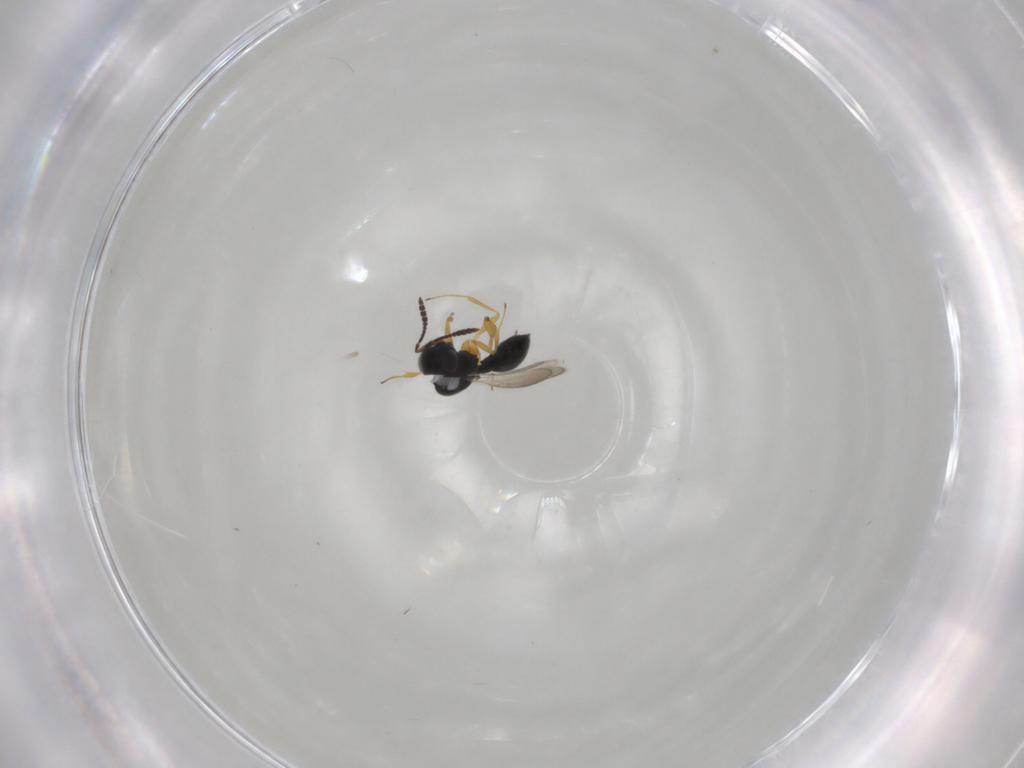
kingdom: Animalia
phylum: Arthropoda
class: Insecta
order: Hymenoptera
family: Scelionidae
